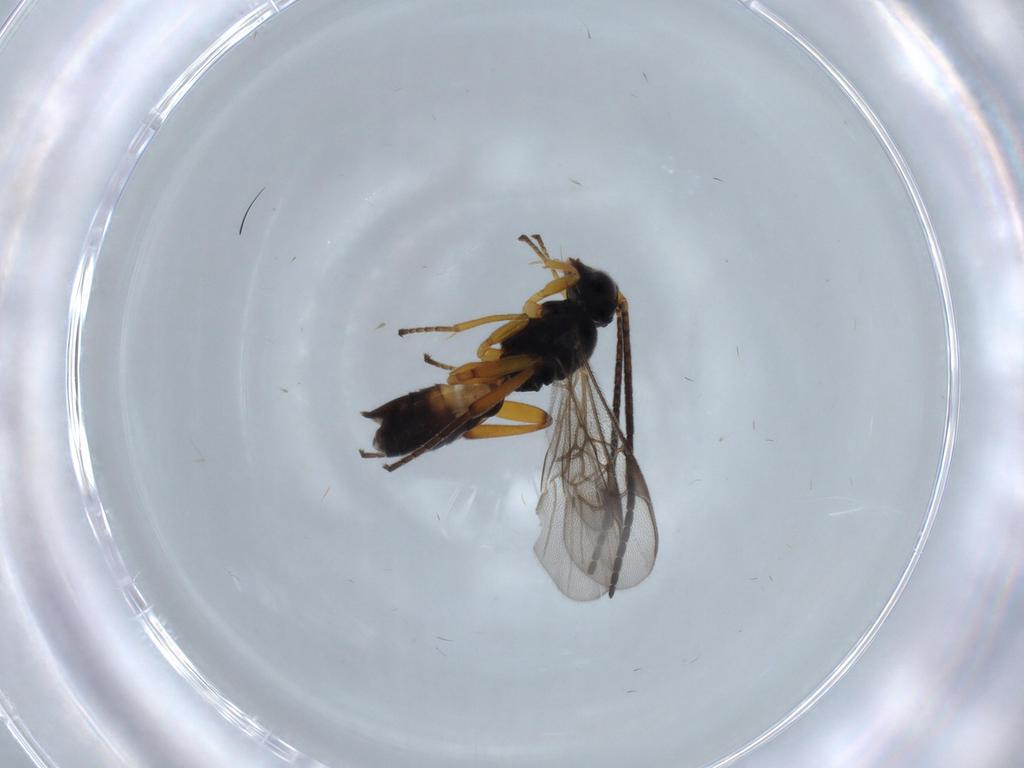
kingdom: Animalia
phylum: Arthropoda
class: Insecta
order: Hymenoptera
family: Braconidae
